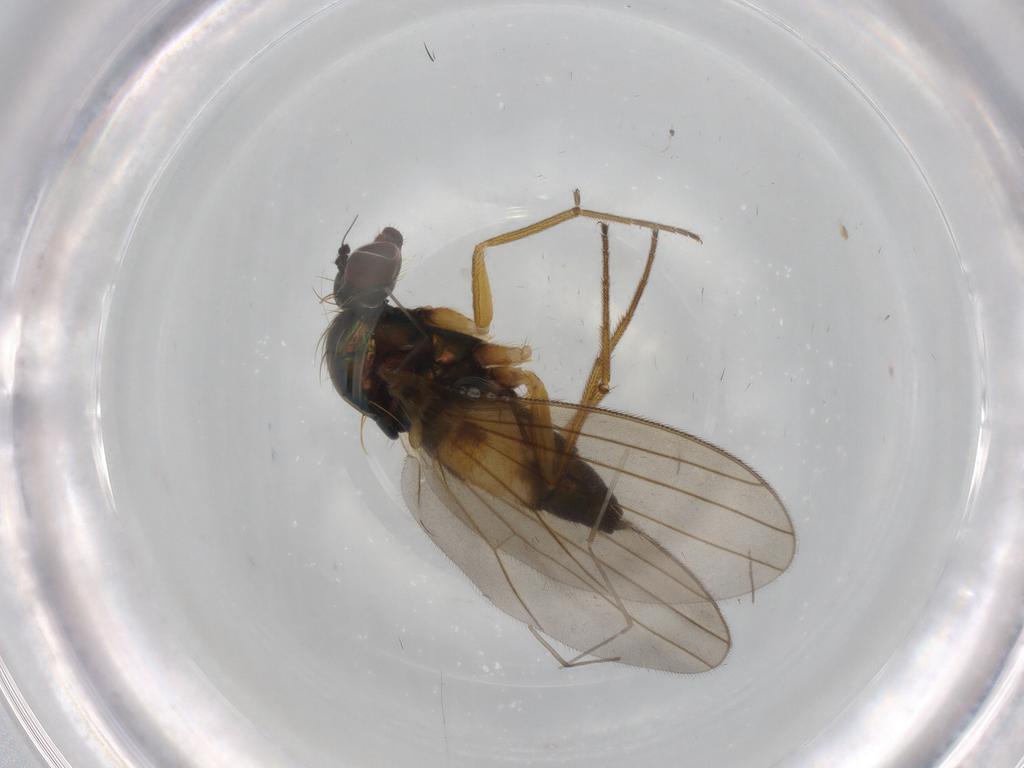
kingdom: Animalia
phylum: Arthropoda
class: Insecta
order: Diptera
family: Dolichopodidae
